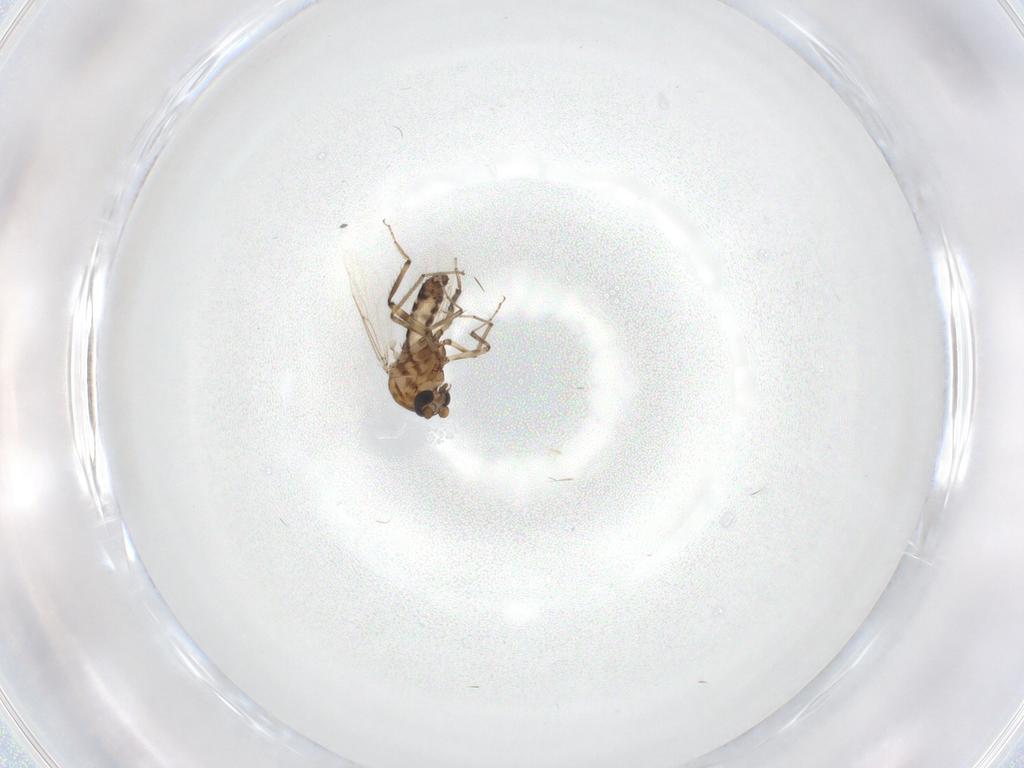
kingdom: Animalia
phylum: Arthropoda
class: Insecta
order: Diptera
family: Ceratopogonidae
